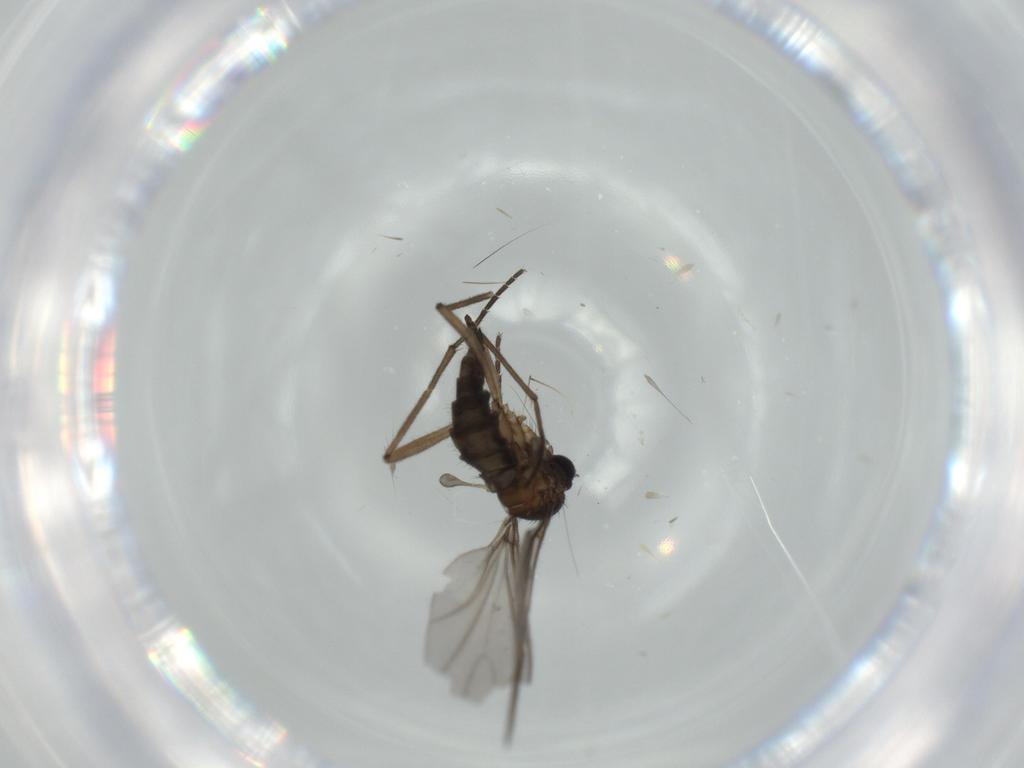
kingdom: Animalia
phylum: Arthropoda
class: Insecta
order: Diptera
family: Sciaridae
